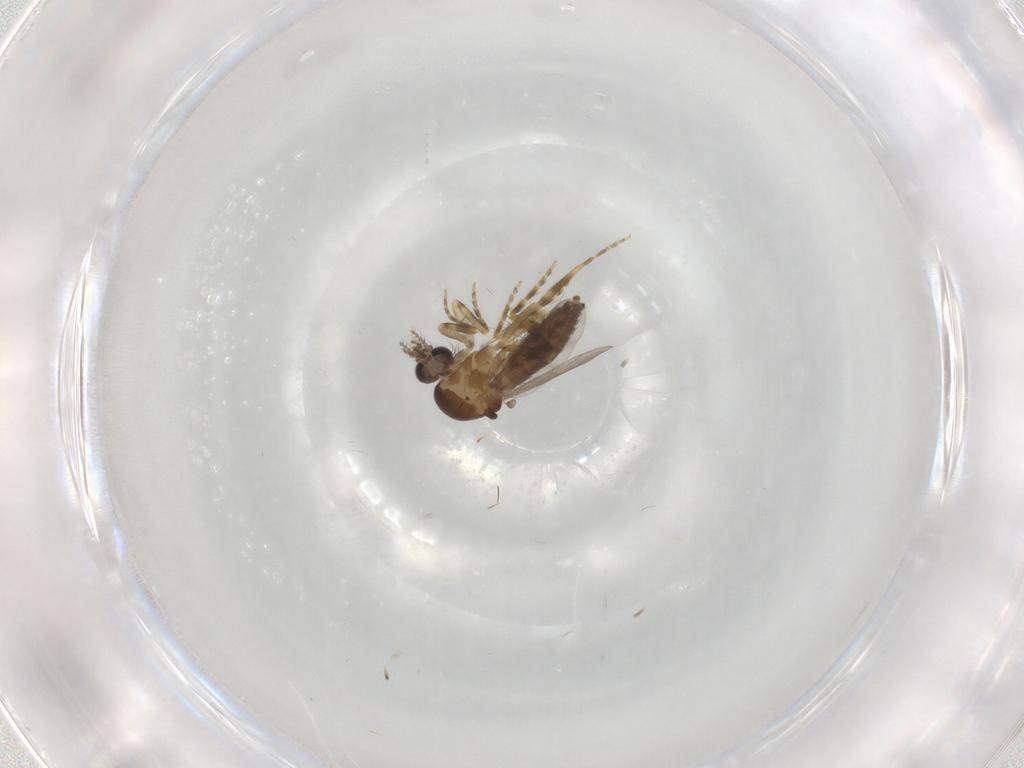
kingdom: Animalia
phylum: Arthropoda
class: Insecta
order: Diptera
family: Ceratopogonidae
